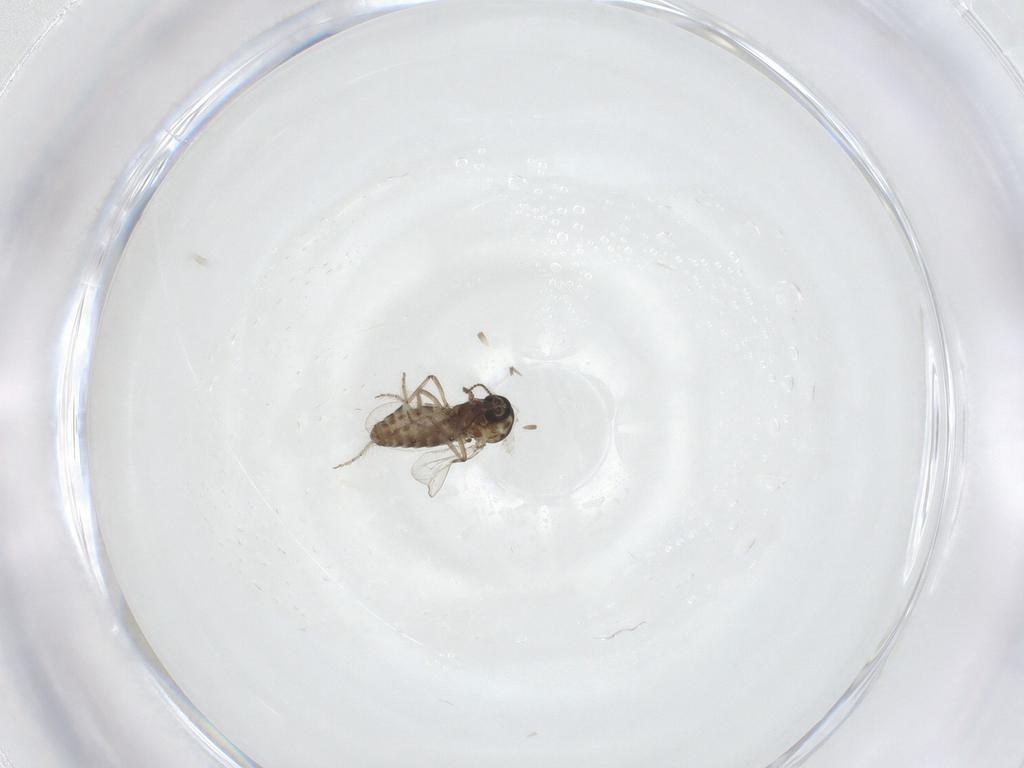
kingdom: Animalia
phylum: Arthropoda
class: Insecta
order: Diptera
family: Ceratopogonidae
